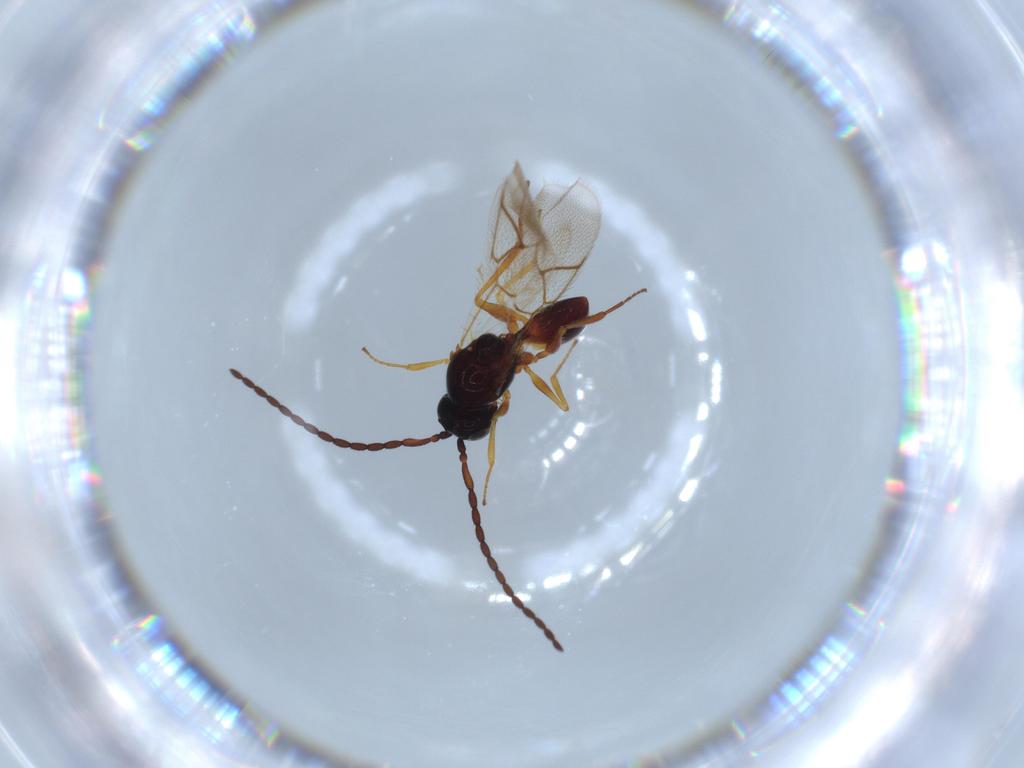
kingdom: Animalia
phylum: Arthropoda
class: Insecta
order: Hymenoptera
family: Figitidae
